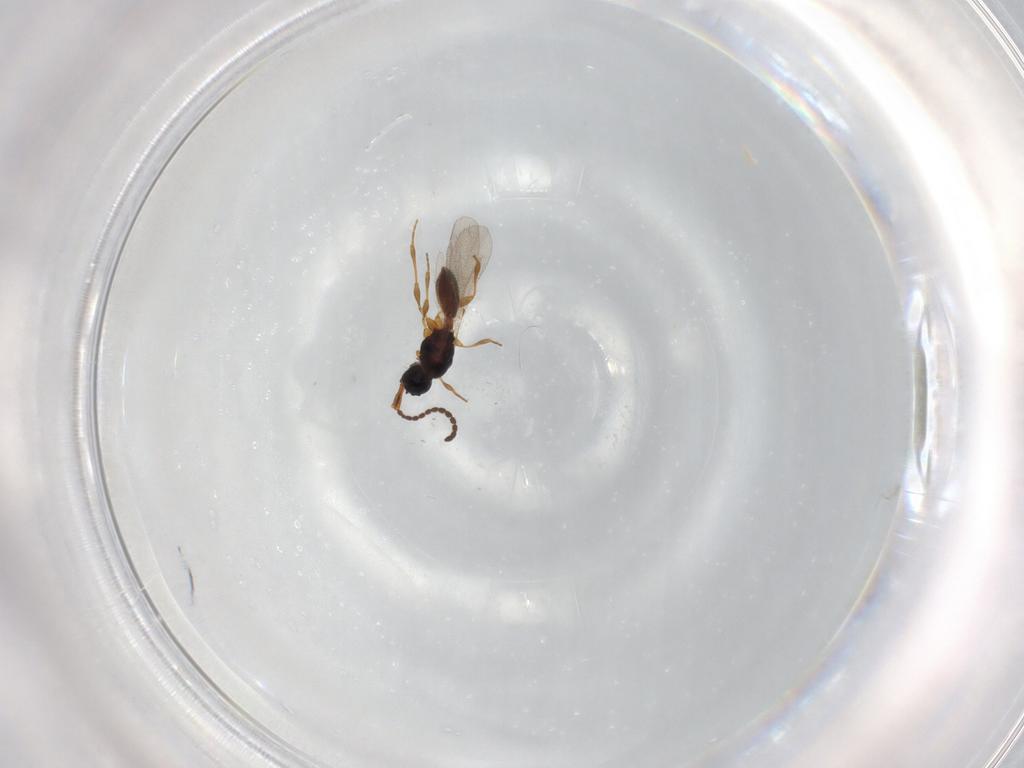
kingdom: Animalia
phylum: Arthropoda
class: Insecta
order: Hymenoptera
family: Diapriidae
